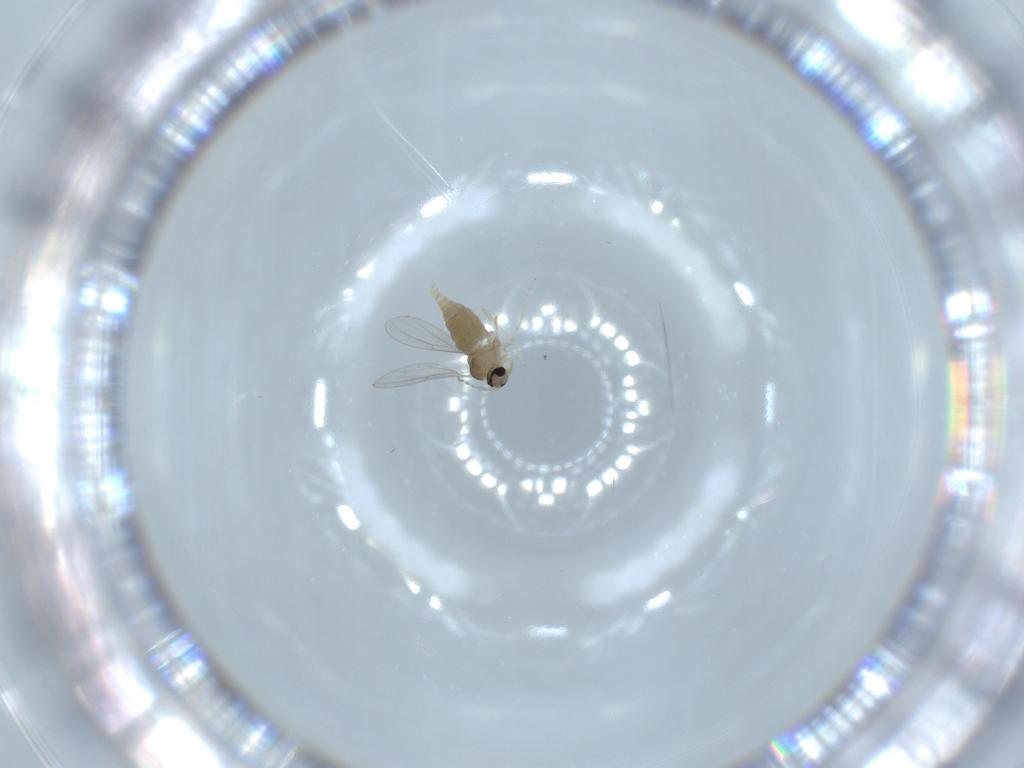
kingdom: Animalia
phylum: Arthropoda
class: Insecta
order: Diptera
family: Cecidomyiidae
